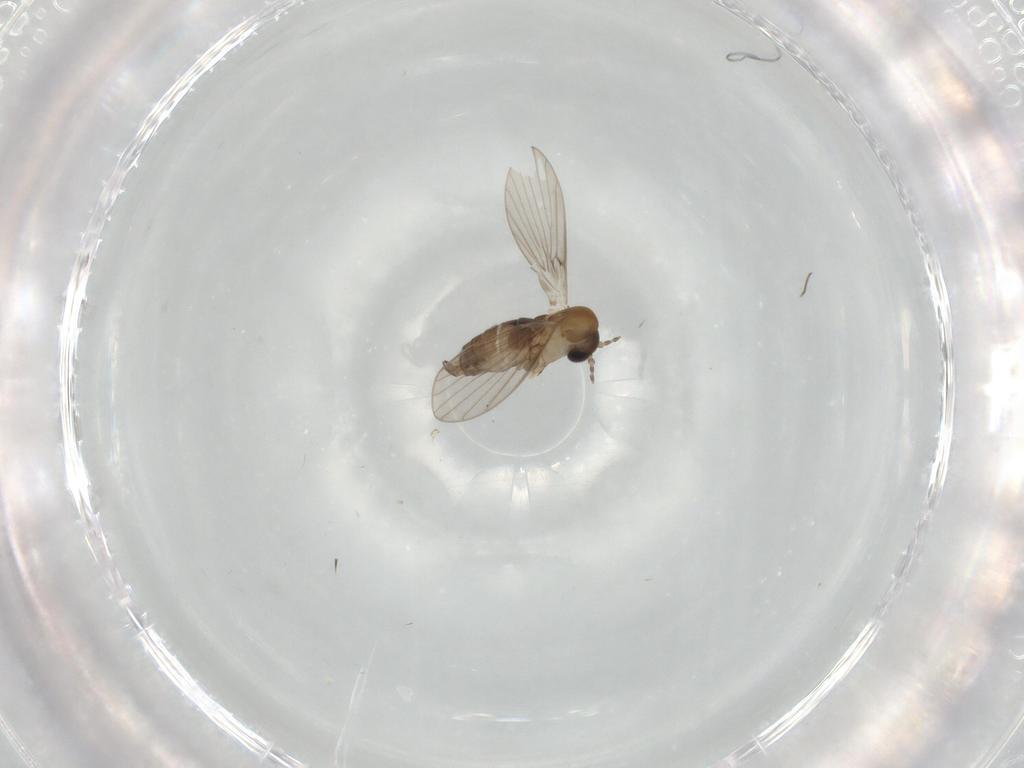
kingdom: Animalia
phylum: Arthropoda
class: Insecta
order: Diptera
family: Psychodidae
